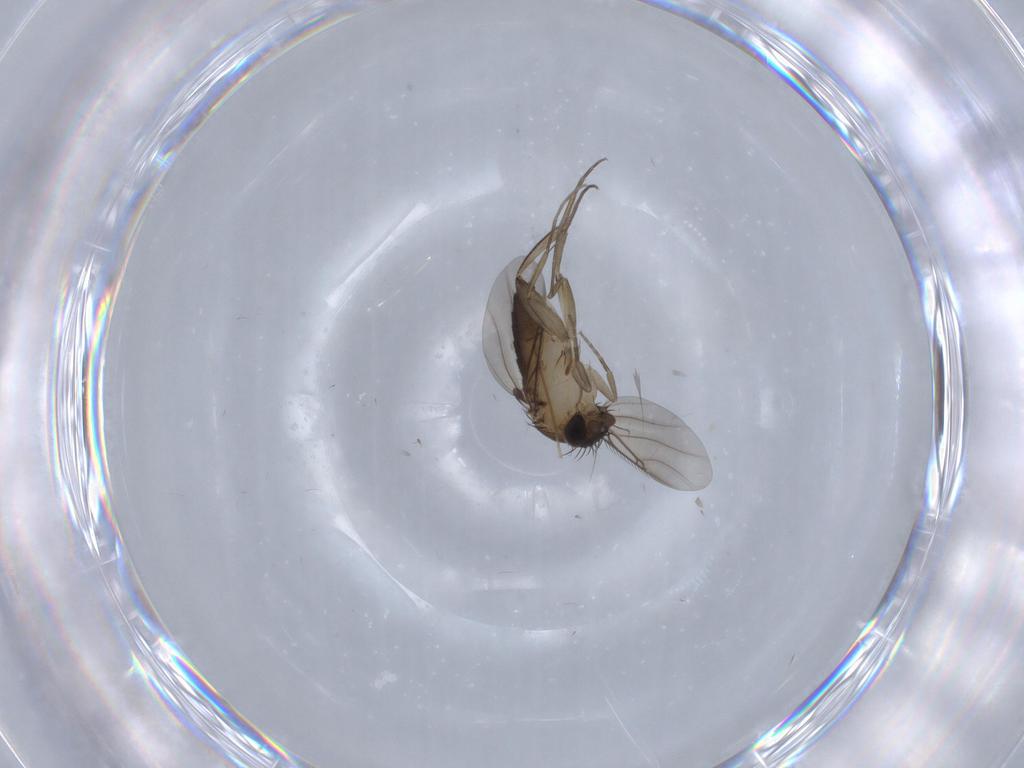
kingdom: Animalia
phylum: Arthropoda
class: Insecta
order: Diptera
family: Phoridae
